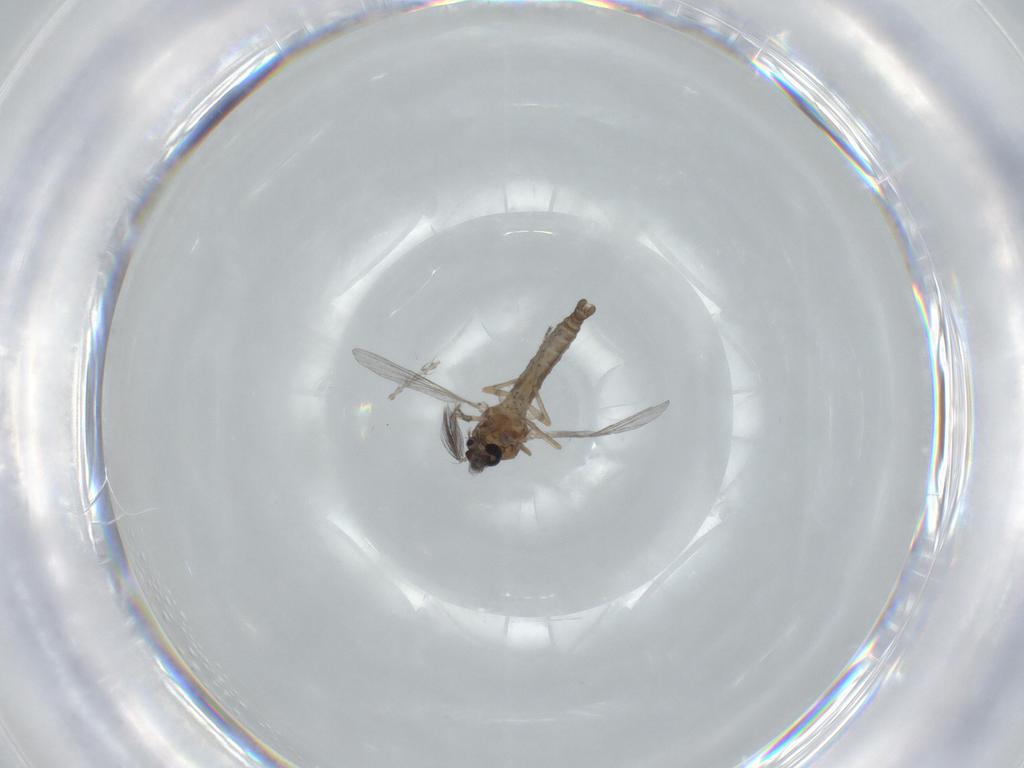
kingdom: Animalia
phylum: Arthropoda
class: Insecta
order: Diptera
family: Ceratopogonidae
